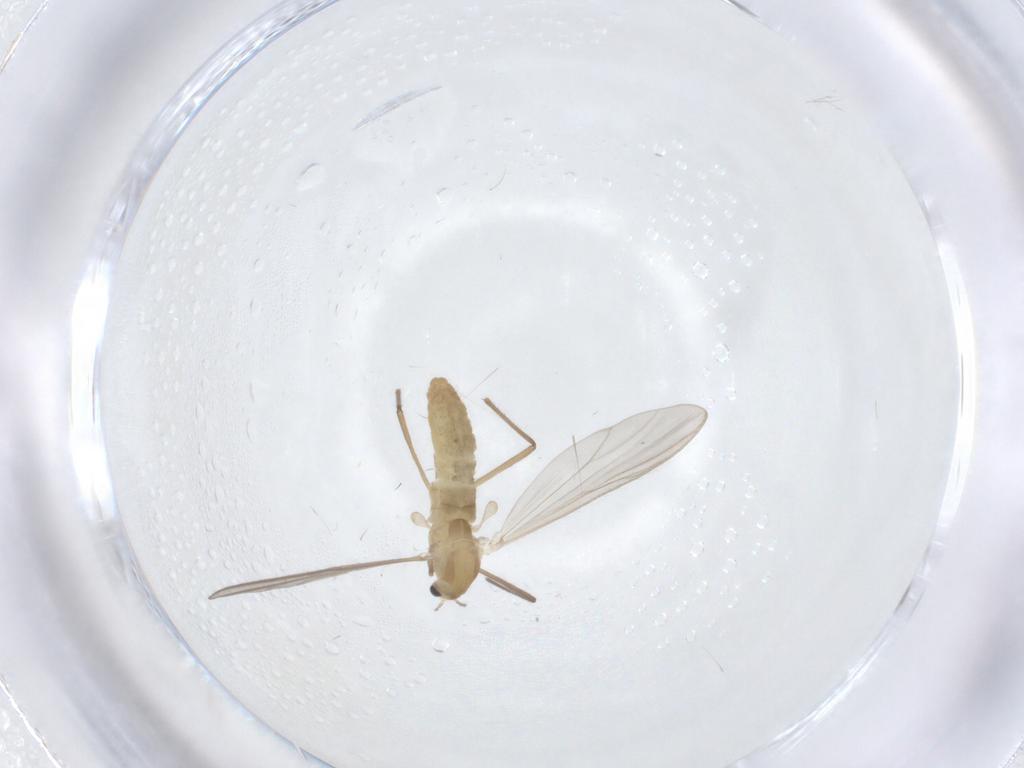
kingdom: Animalia
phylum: Arthropoda
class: Insecta
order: Diptera
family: Chironomidae
